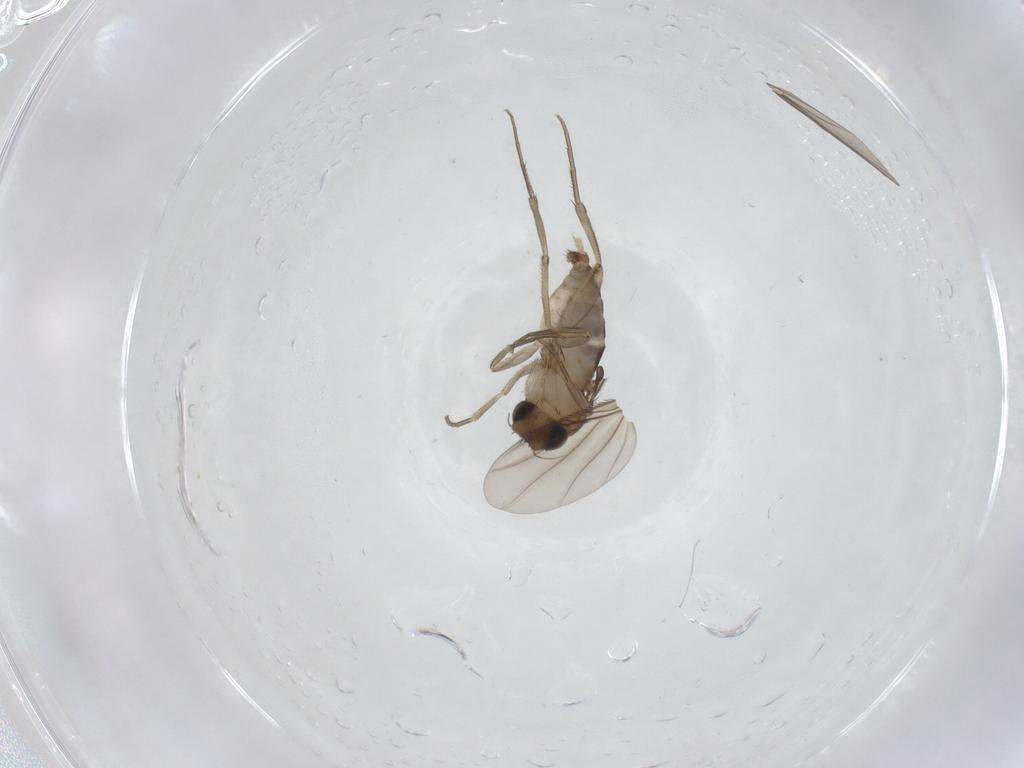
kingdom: Animalia
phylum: Arthropoda
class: Insecta
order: Diptera
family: Phoridae
